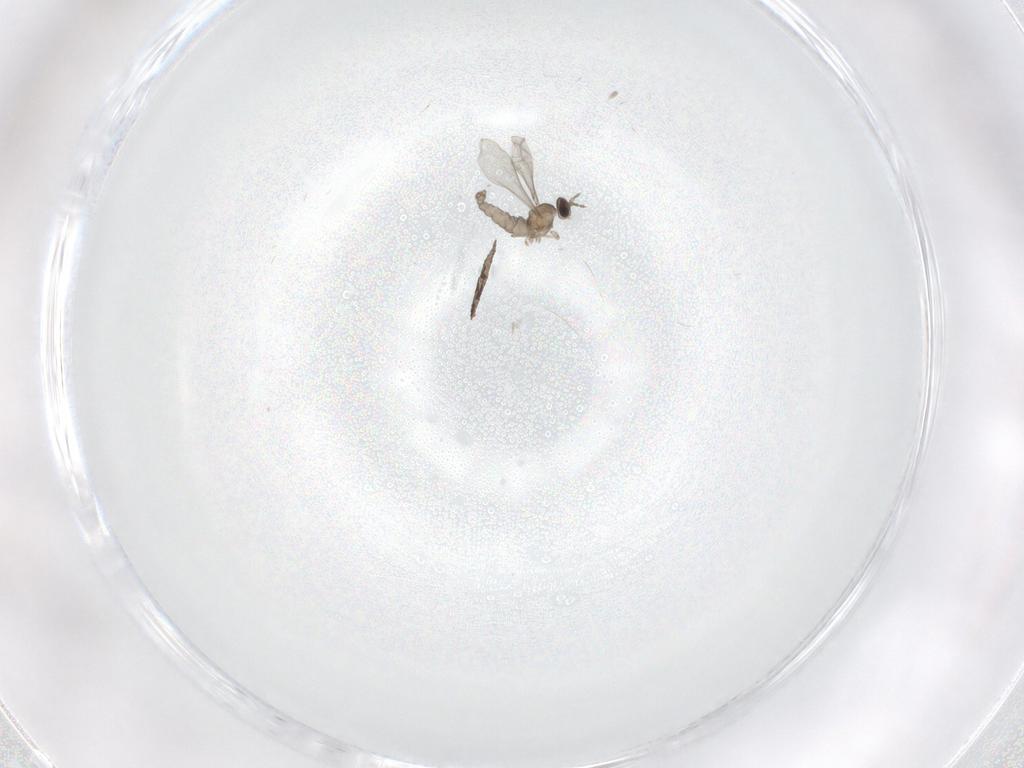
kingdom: Animalia
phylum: Arthropoda
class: Insecta
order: Diptera
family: Limoniidae
